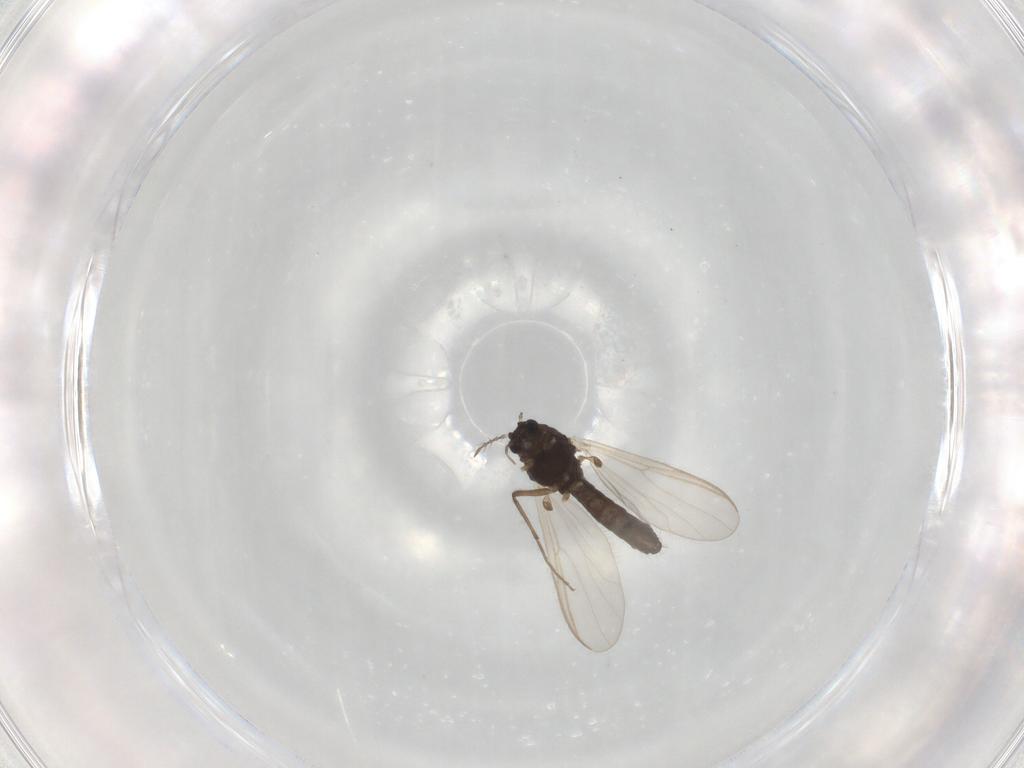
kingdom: Animalia
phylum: Arthropoda
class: Insecta
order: Diptera
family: Chironomidae
